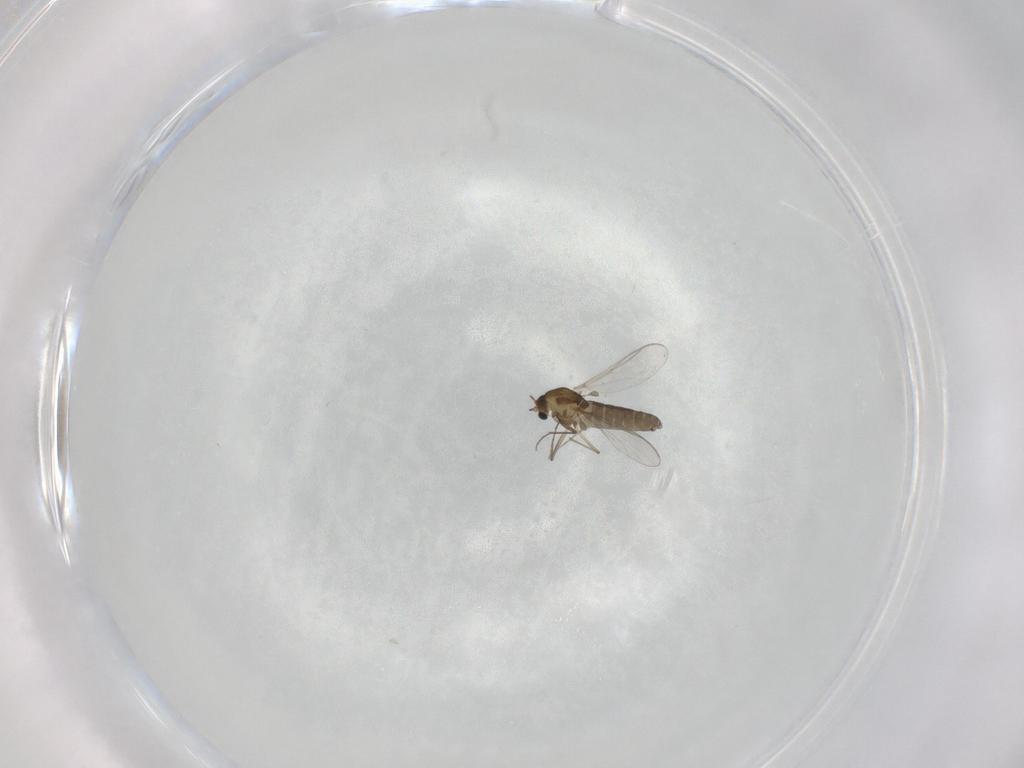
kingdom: Animalia
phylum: Arthropoda
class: Insecta
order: Diptera
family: Chironomidae
